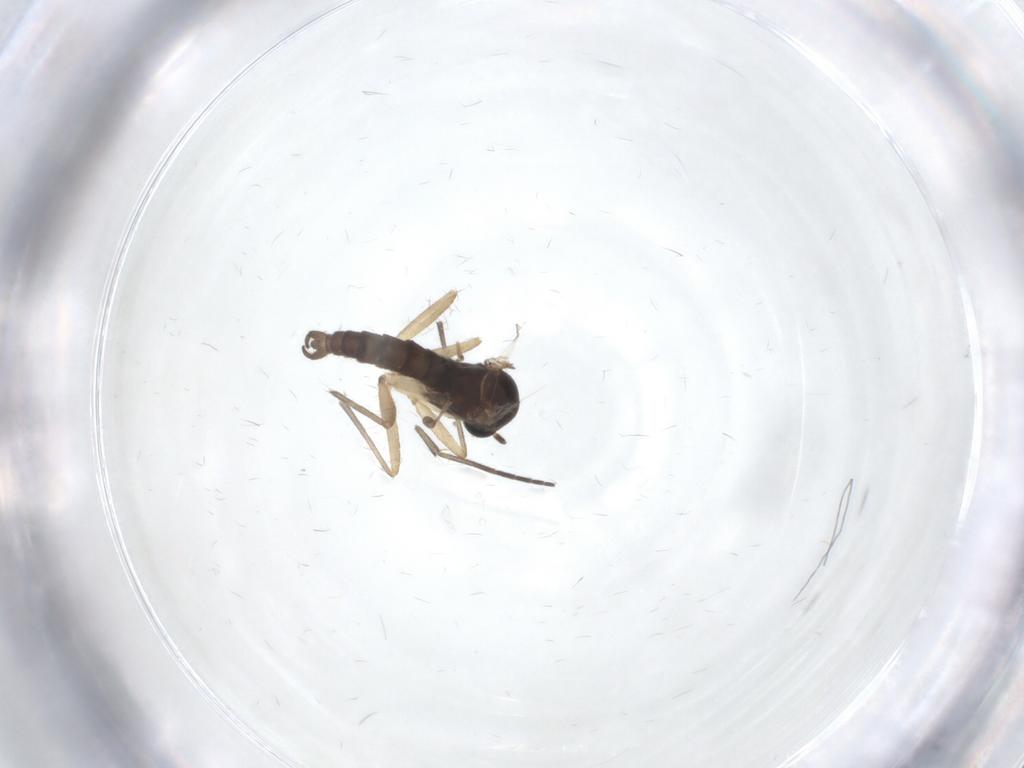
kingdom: Animalia
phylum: Arthropoda
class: Insecta
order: Diptera
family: Sciaridae
